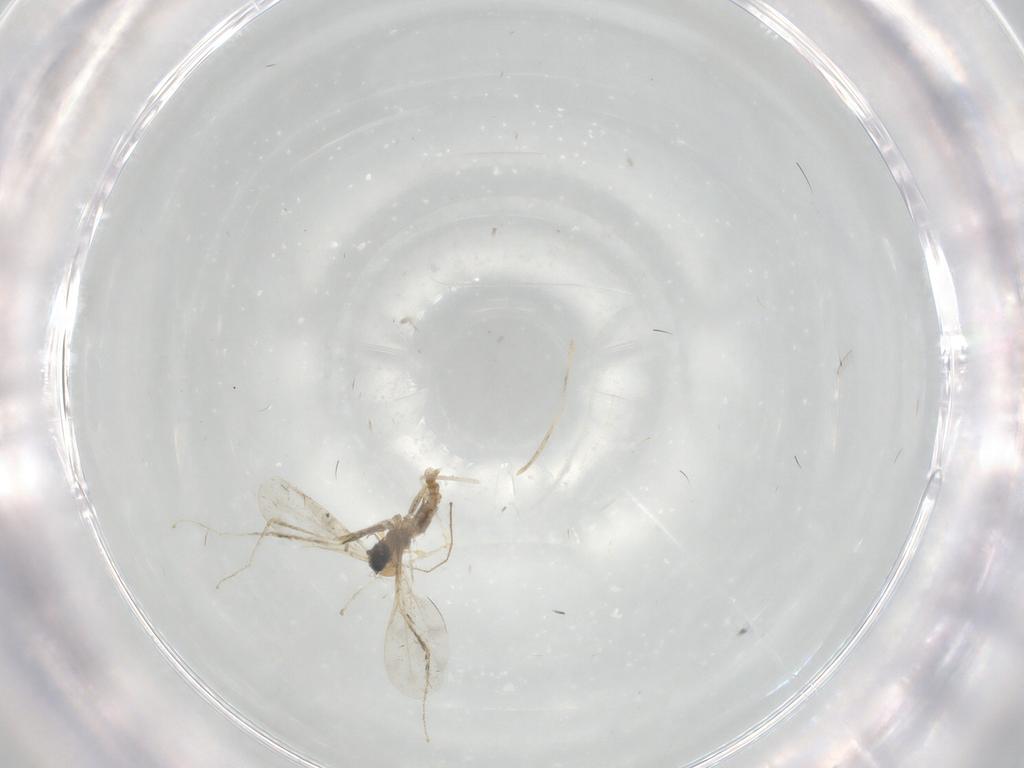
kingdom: Animalia
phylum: Arthropoda
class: Insecta
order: Diptera
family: Cecidomyiidae
